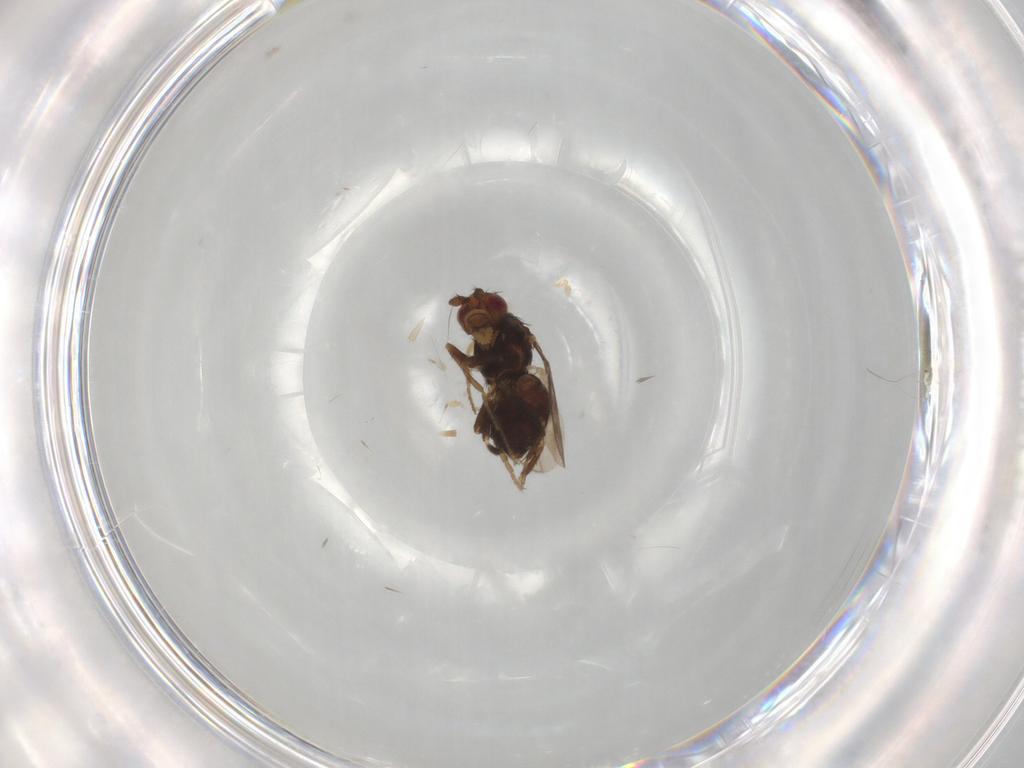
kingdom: Animalia
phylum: Arthropoda
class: Insecta
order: Diptera
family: Sphaeroceridae
